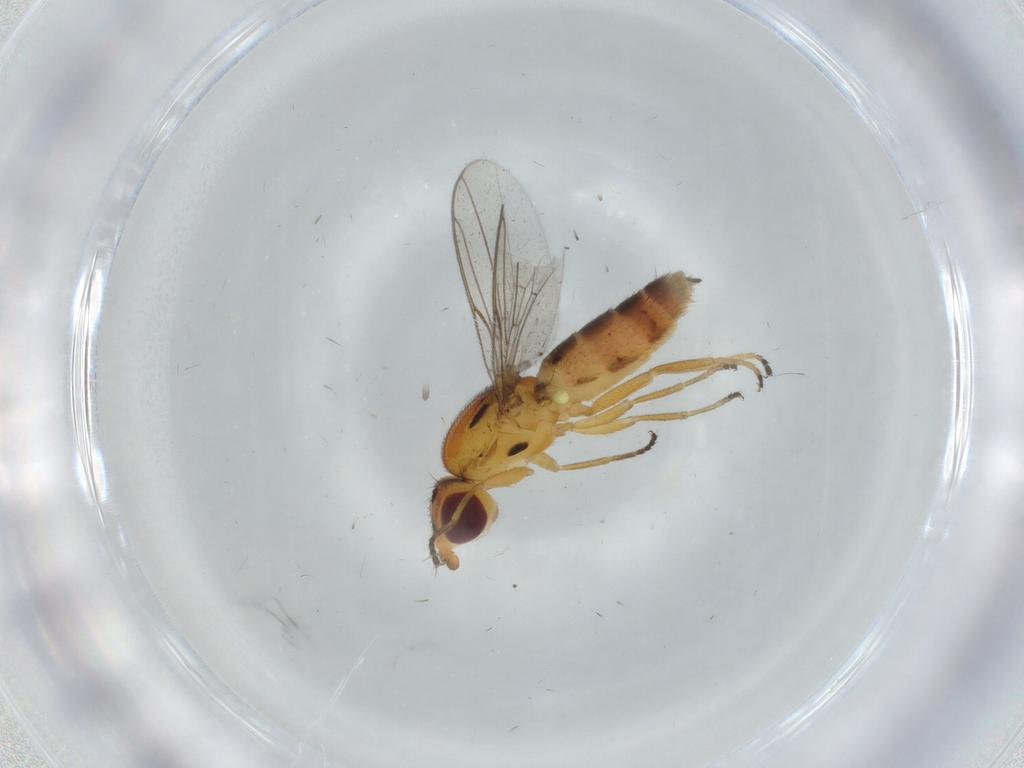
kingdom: Animalia
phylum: Arthropoda
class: Insecta
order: Diptera
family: Chloropidae
